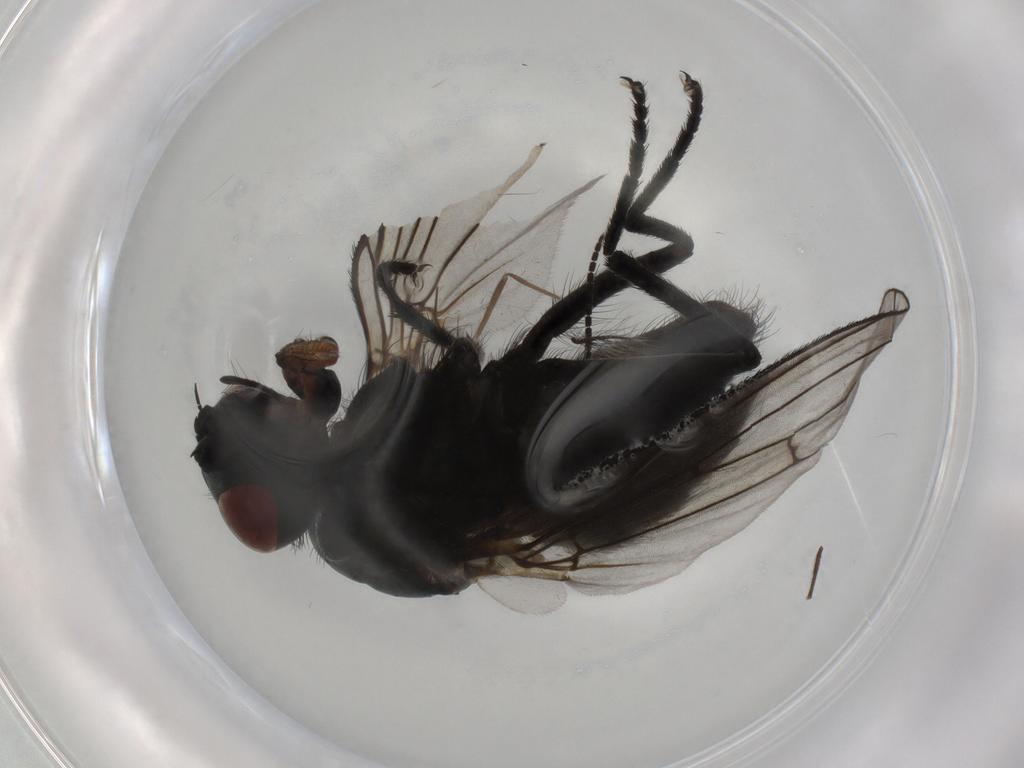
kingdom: Animalia
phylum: Arthropoda
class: Insecta
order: Diptera
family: Muscidae
